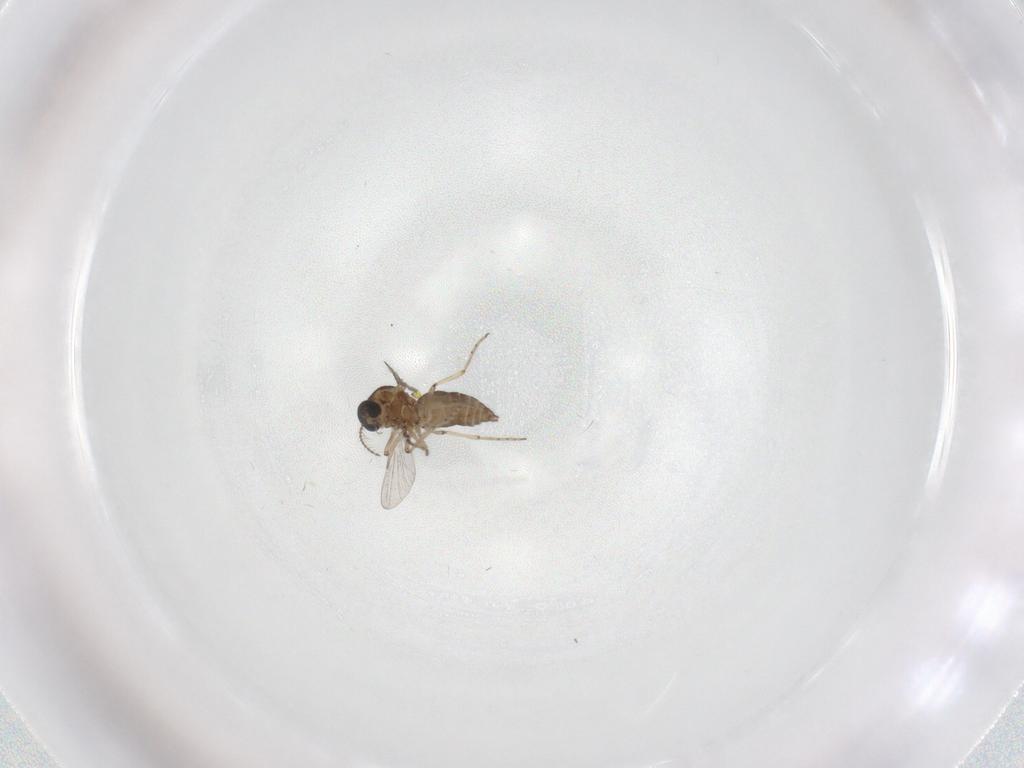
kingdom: Animalia
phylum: Arthropoda
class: Insecta
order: Diptera
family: Ceratopogonidae
